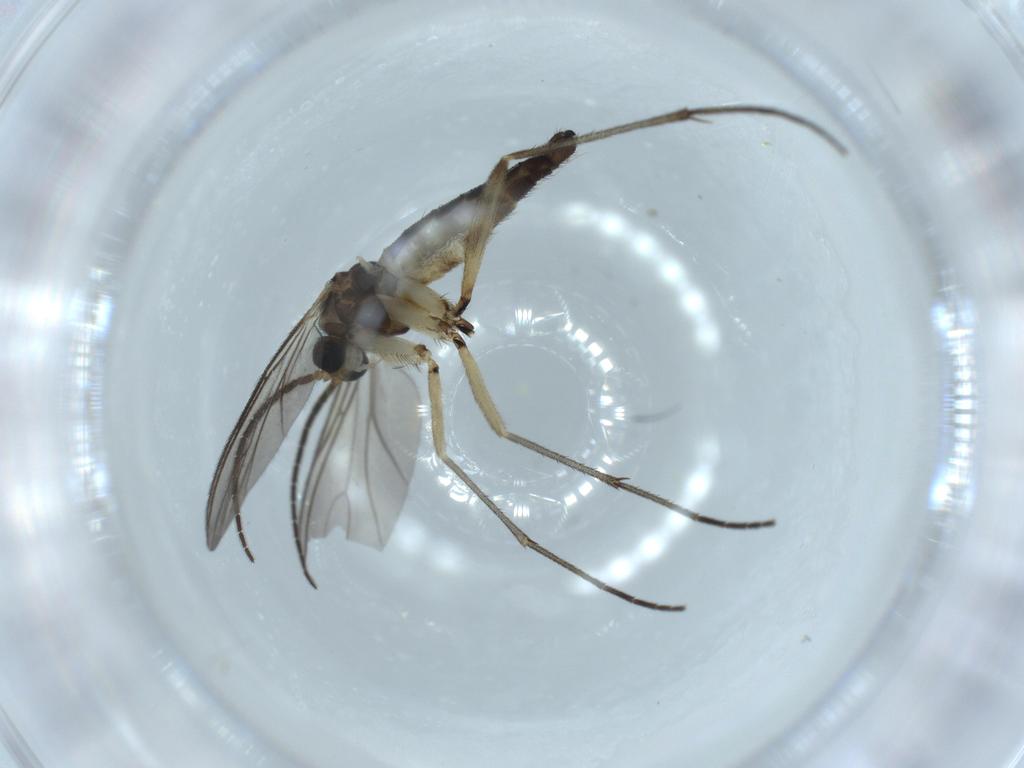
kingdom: Animalia
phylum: Arthropoda
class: Insecta
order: Diptera
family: Sciaridae
